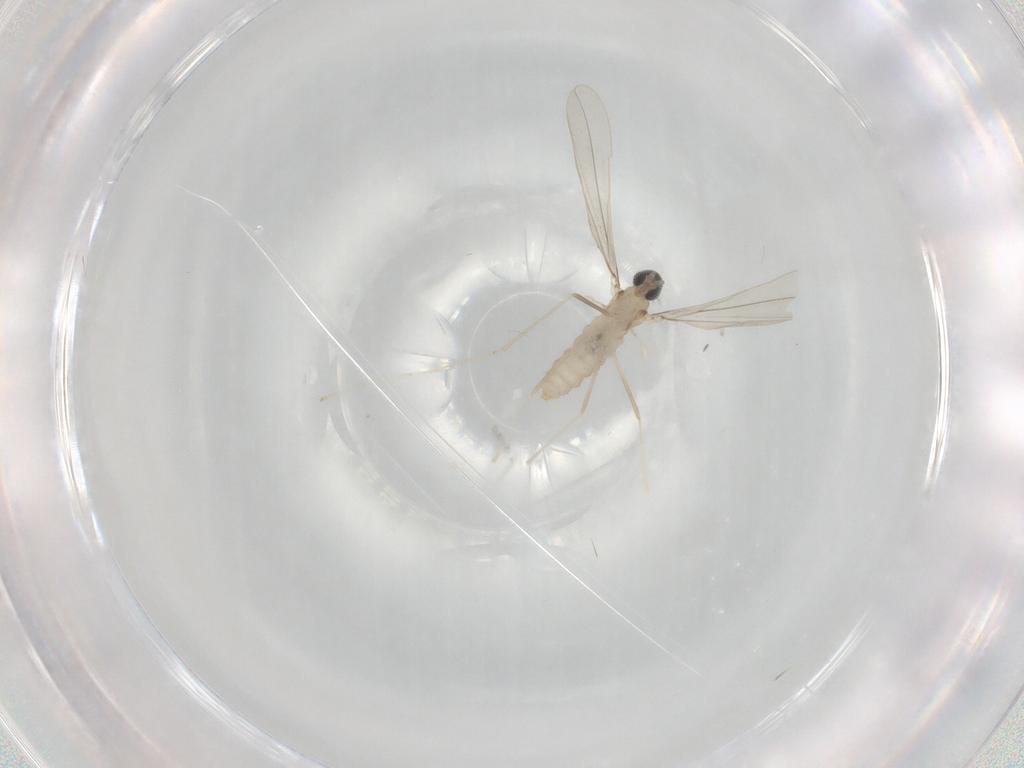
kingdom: Animalia
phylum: Arthropoda
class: Insecta
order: Diptera
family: Cecidomyiidae
